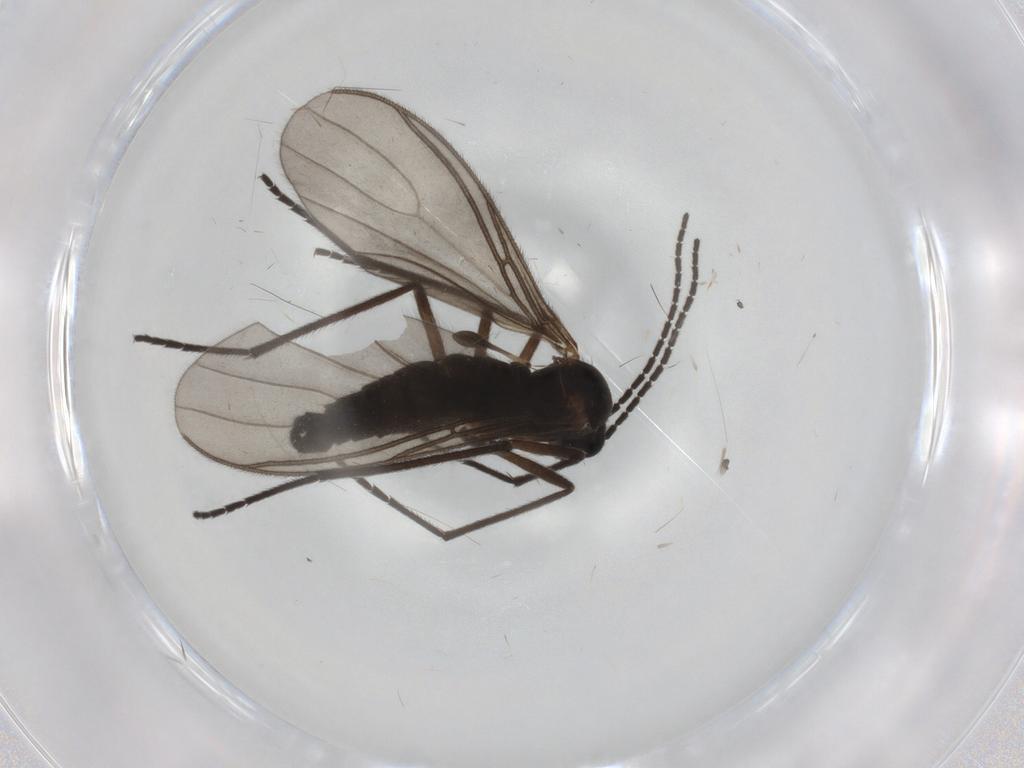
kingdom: Animalia
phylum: Arthropoda
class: Insecta
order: Diptera
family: Sciaridae
